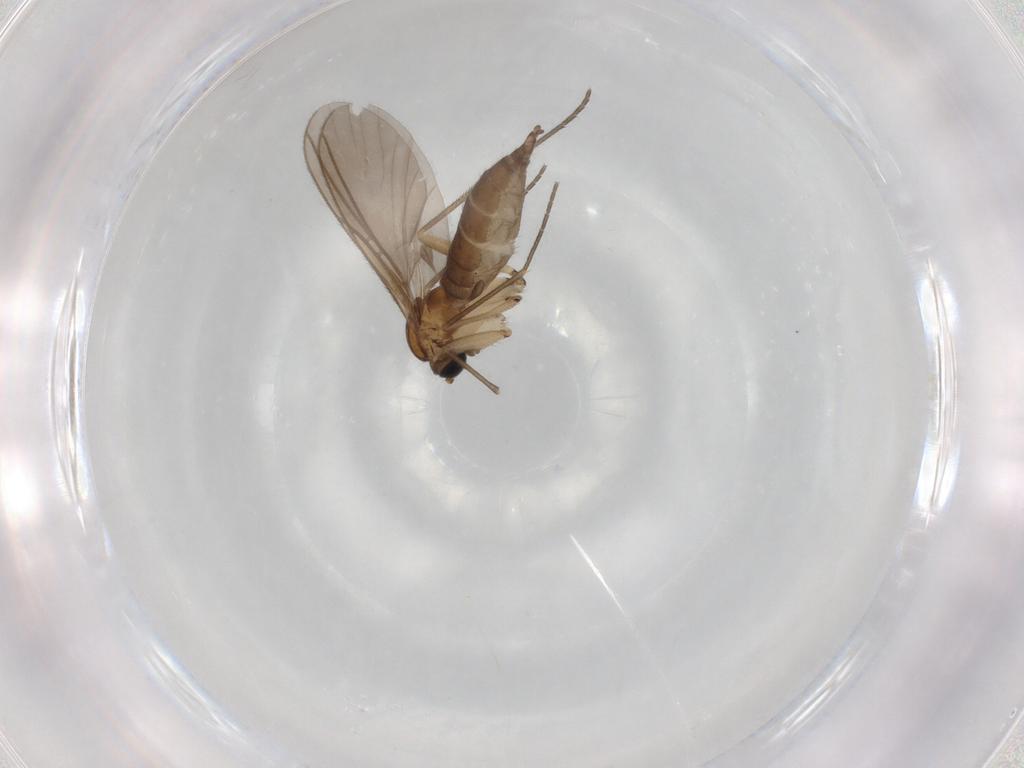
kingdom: Animalia
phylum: Arthropoda
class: Insecta
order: Diptera
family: Sciaridae
